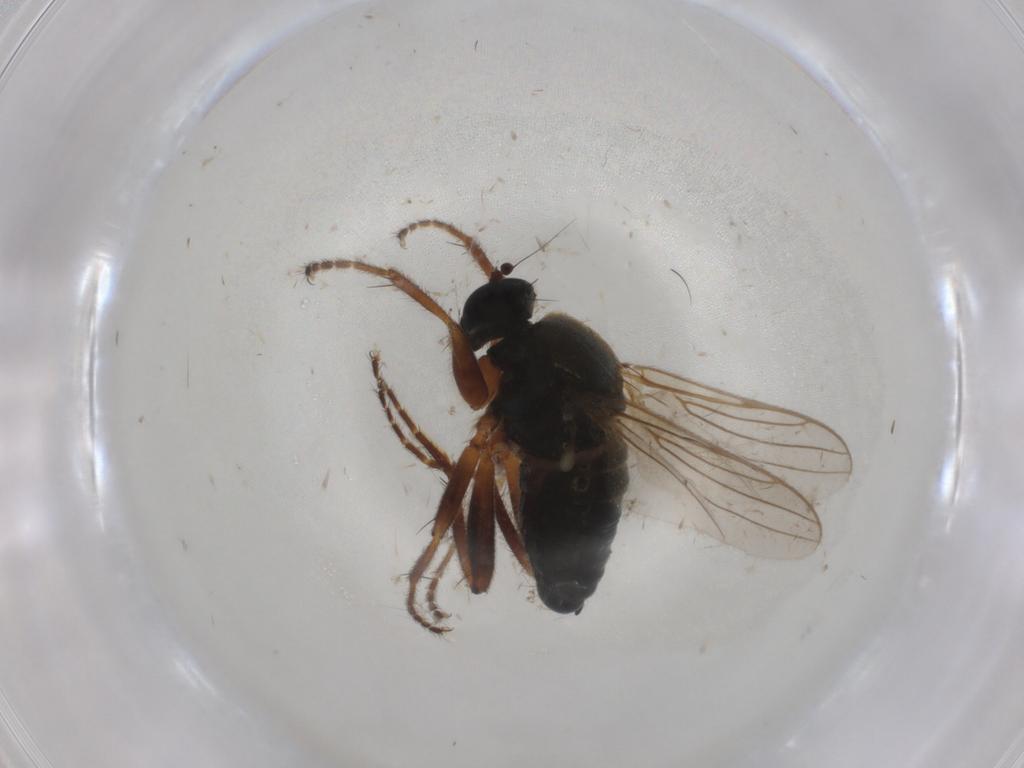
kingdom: Animalia
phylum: Arthropoda
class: Insecta
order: Diptera
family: Hybotidae
